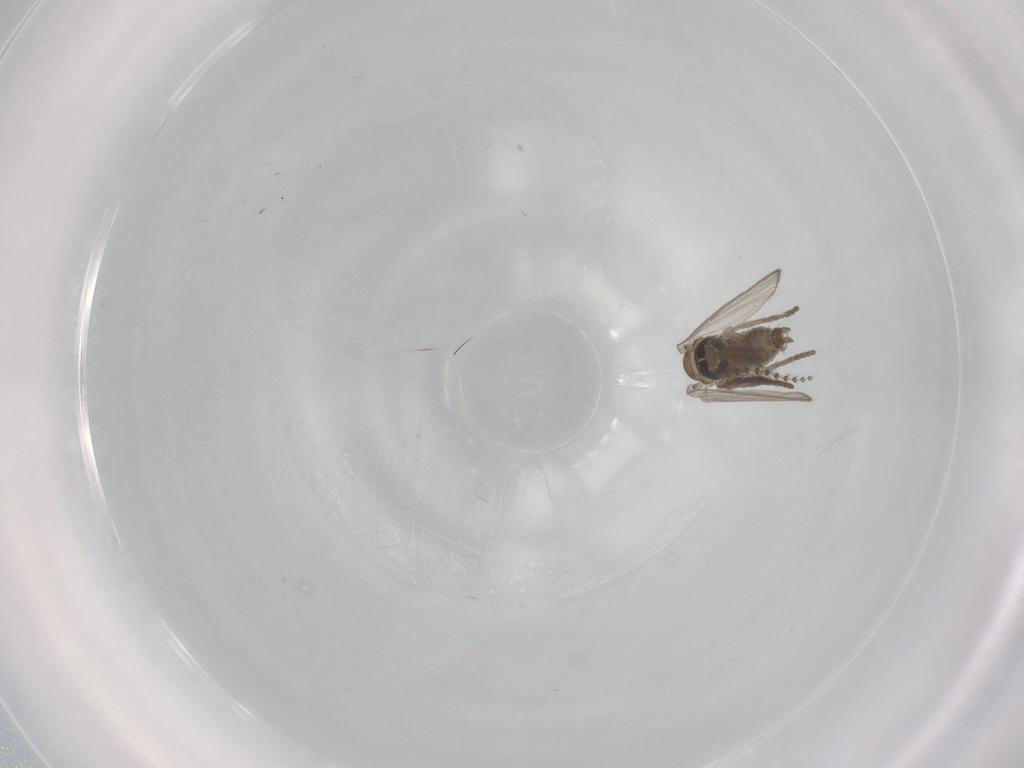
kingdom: Animalia
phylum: Arthropoda
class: Insecta
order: Diptera
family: Psychodidae
